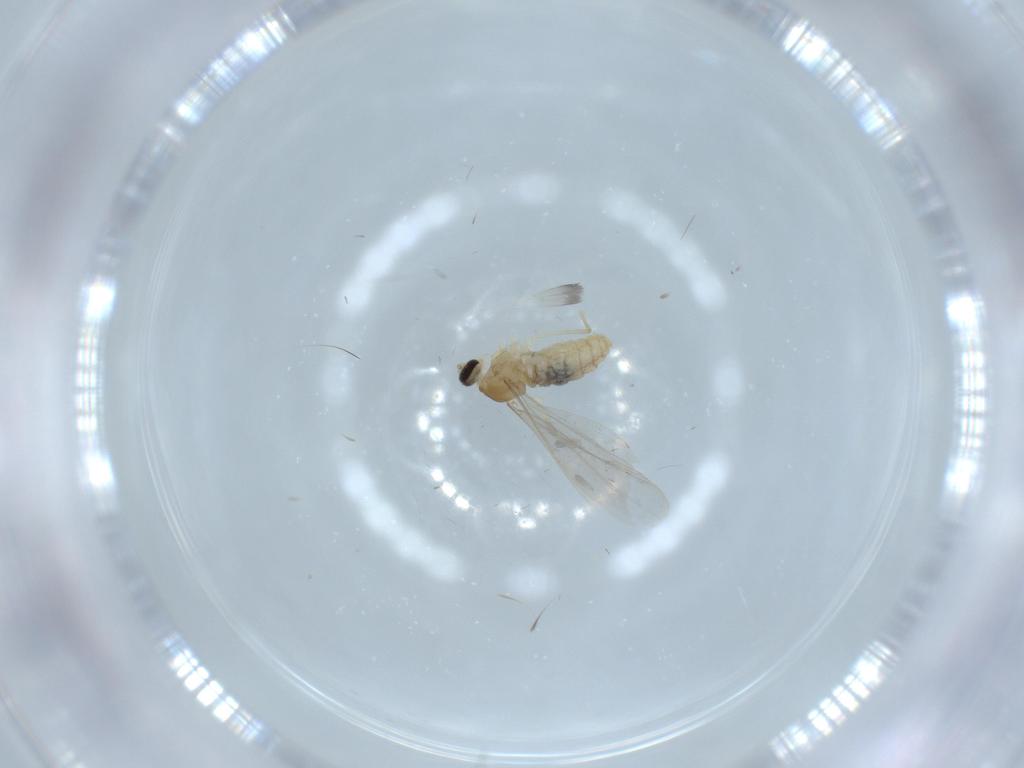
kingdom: Animalia
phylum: Arthropoda
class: Insecta
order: Diptera
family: Cecidomyiidae
